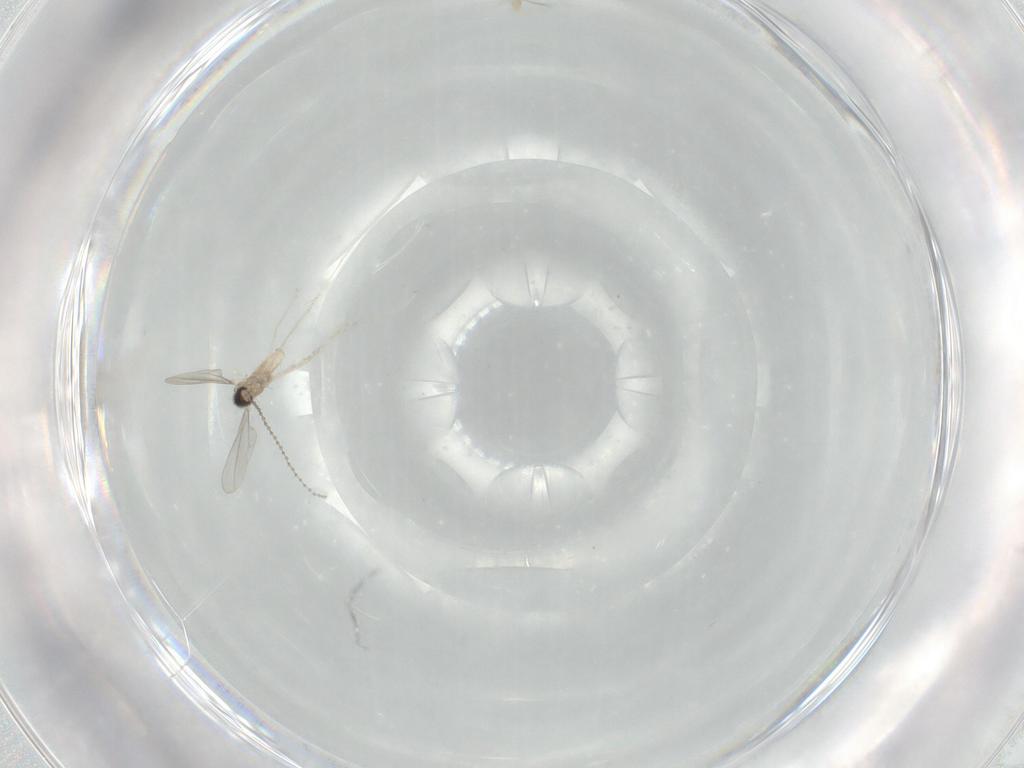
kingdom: Animalia
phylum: Arthropoda
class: Insecta
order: Diptera
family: Cecidomyiidae
